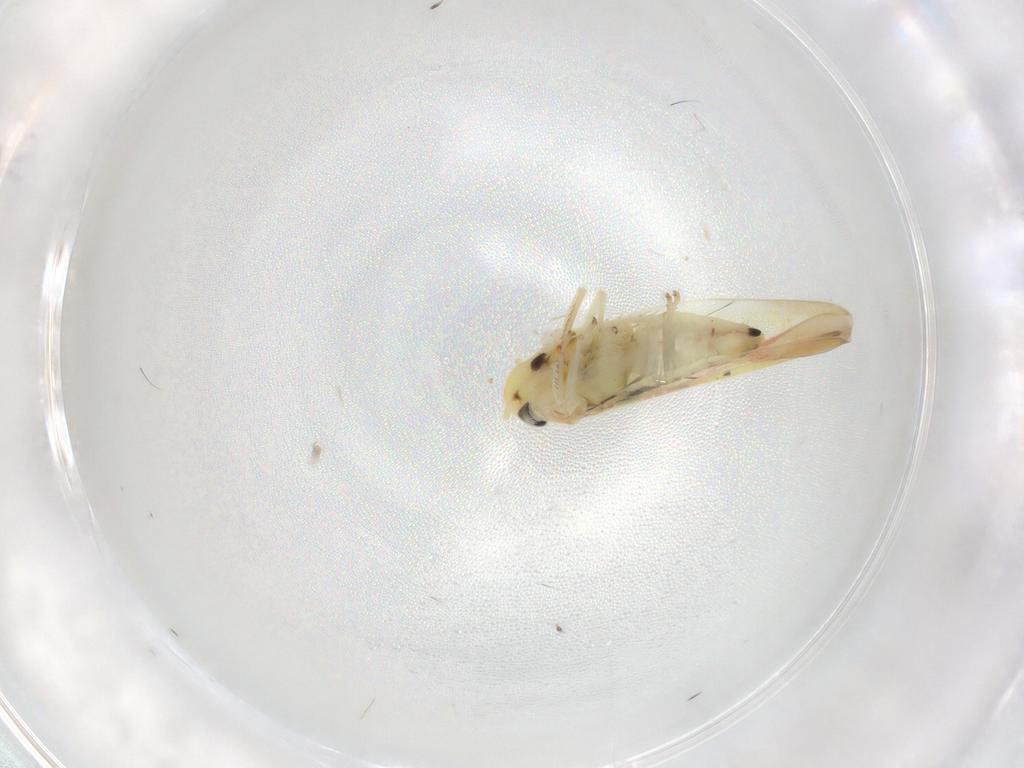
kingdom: Animalia
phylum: Arthropoda
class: Insecta
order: Hemiptera
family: Cicadellidae
